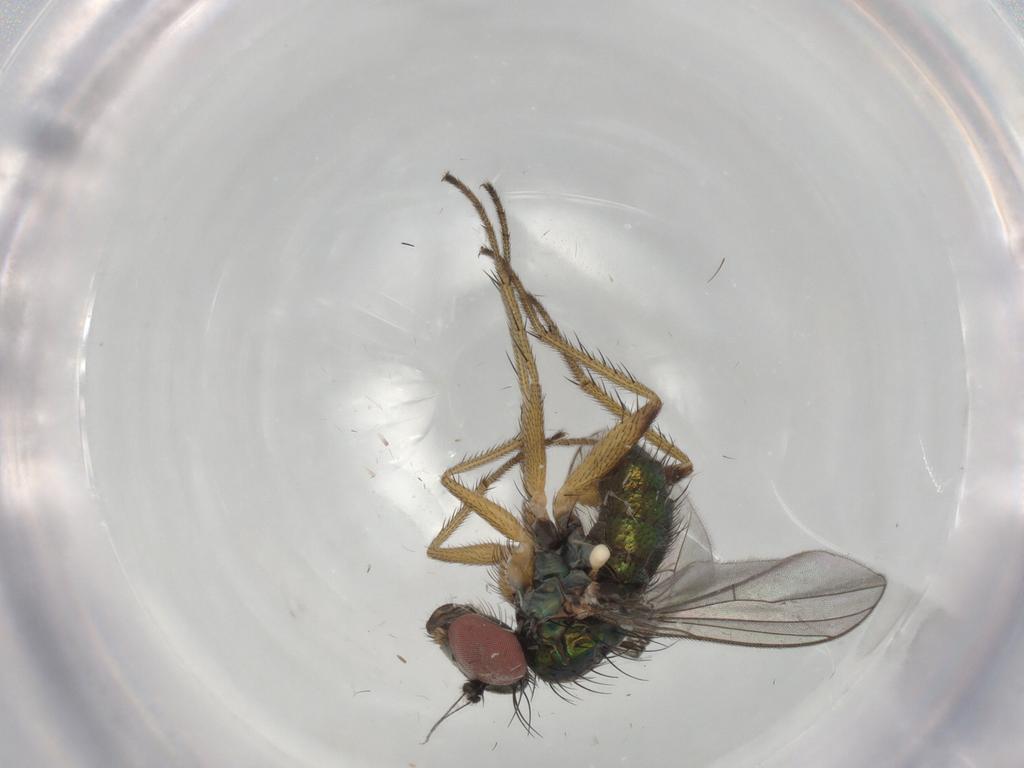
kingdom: Animalia
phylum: Arthropoda
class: Insecta
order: Diptera
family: Dolichopodidae
